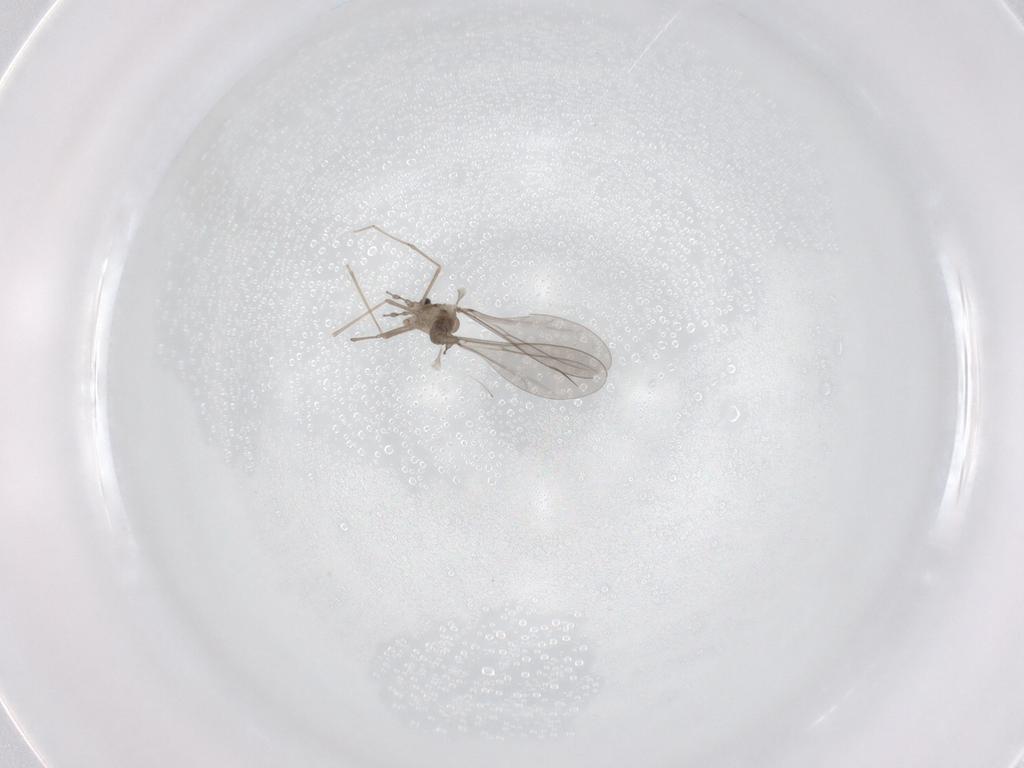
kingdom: Animalia
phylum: Arthropoda
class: Insecta
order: Diptera
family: Cecidomyiidae
